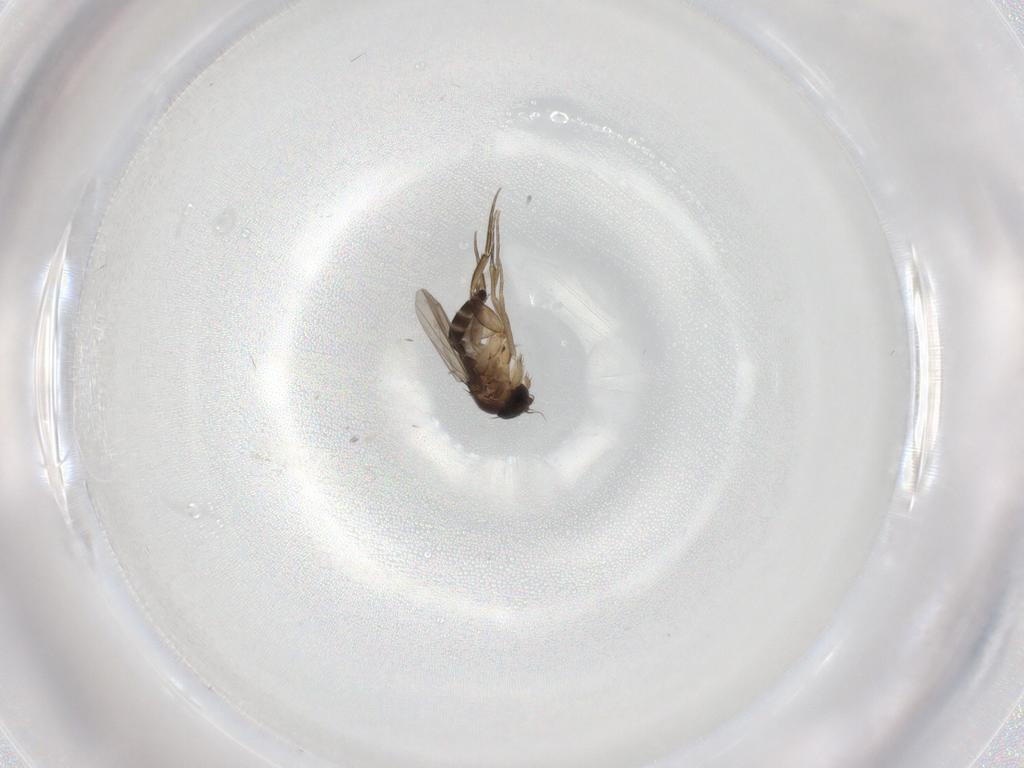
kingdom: Animalia
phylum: Arthropoda
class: Insecta
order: Diptera
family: Phoridae
